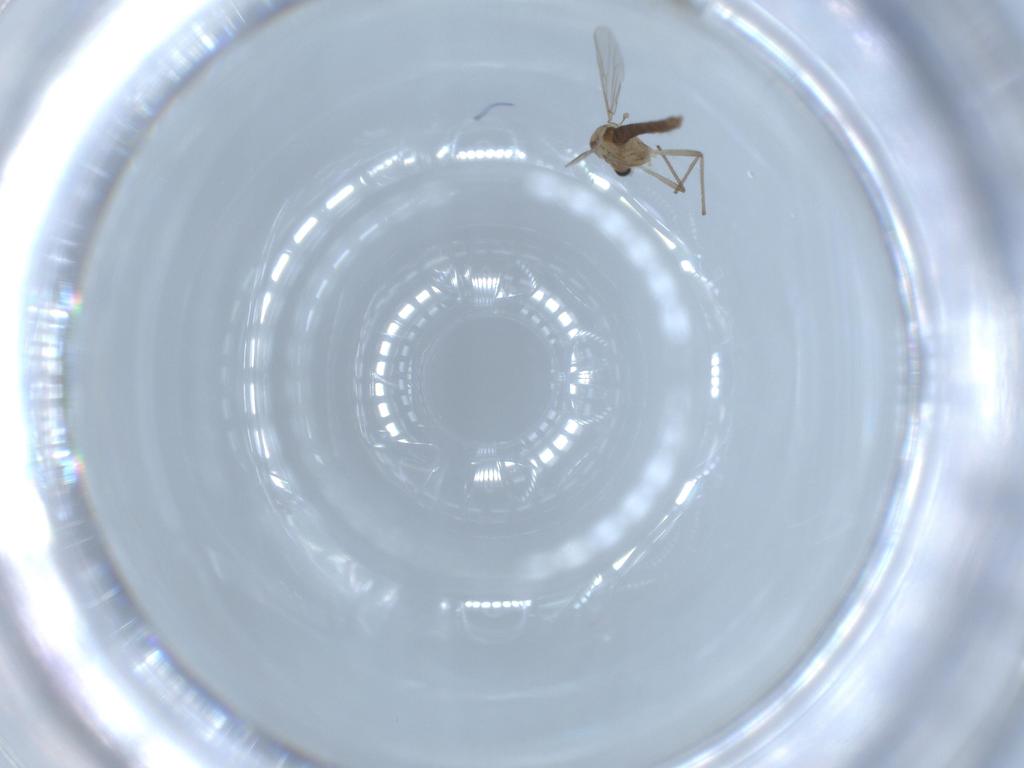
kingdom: Animalia
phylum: Arthropoda
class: Insecta
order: Diptera
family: Chironomidae
